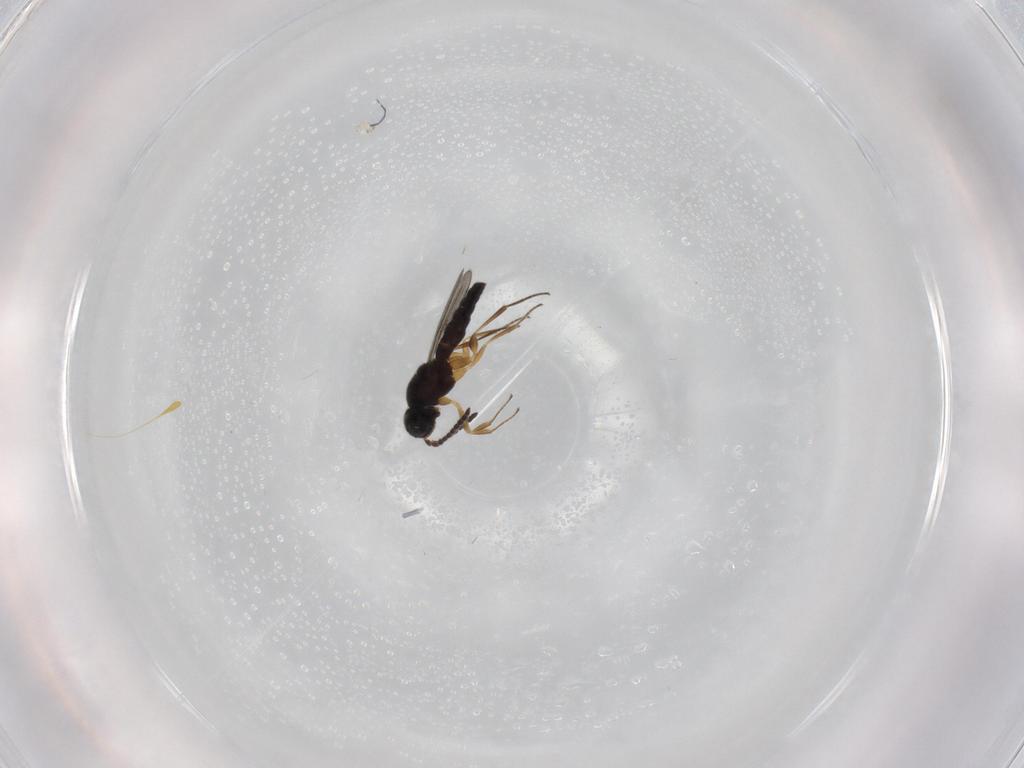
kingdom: Animalia
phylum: Arthropoda
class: Insecta
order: Hymenoptera
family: Scelionidae
